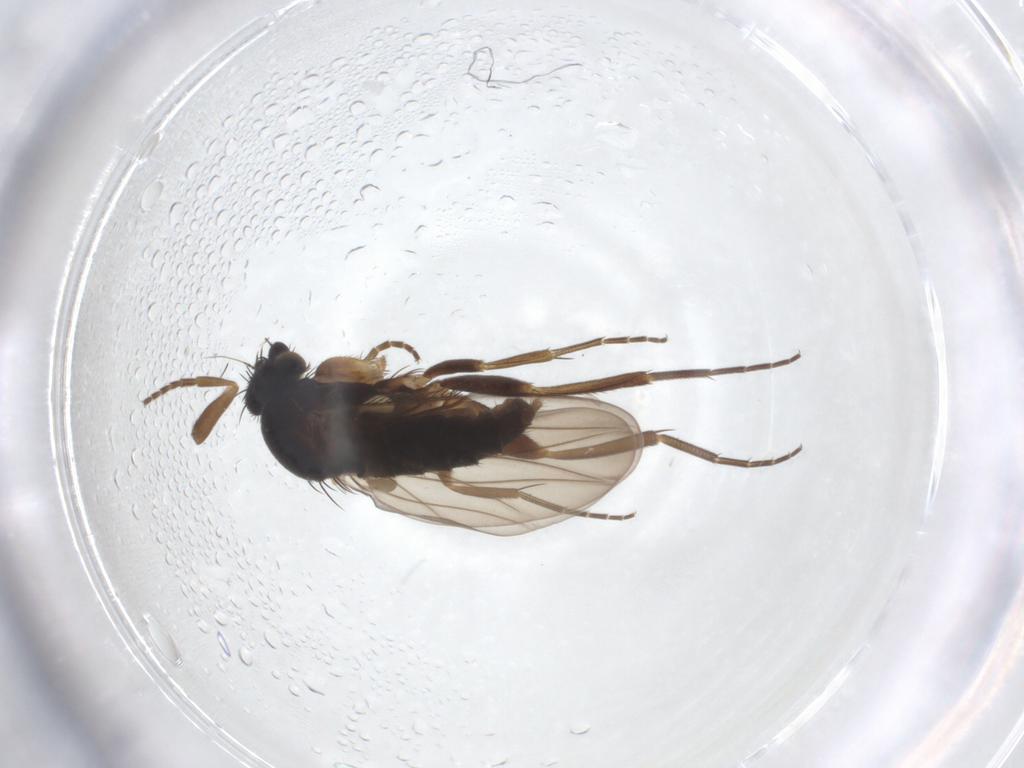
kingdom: Animalia
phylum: Arthropoda
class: Insecta
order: Diptera
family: Phoridae
